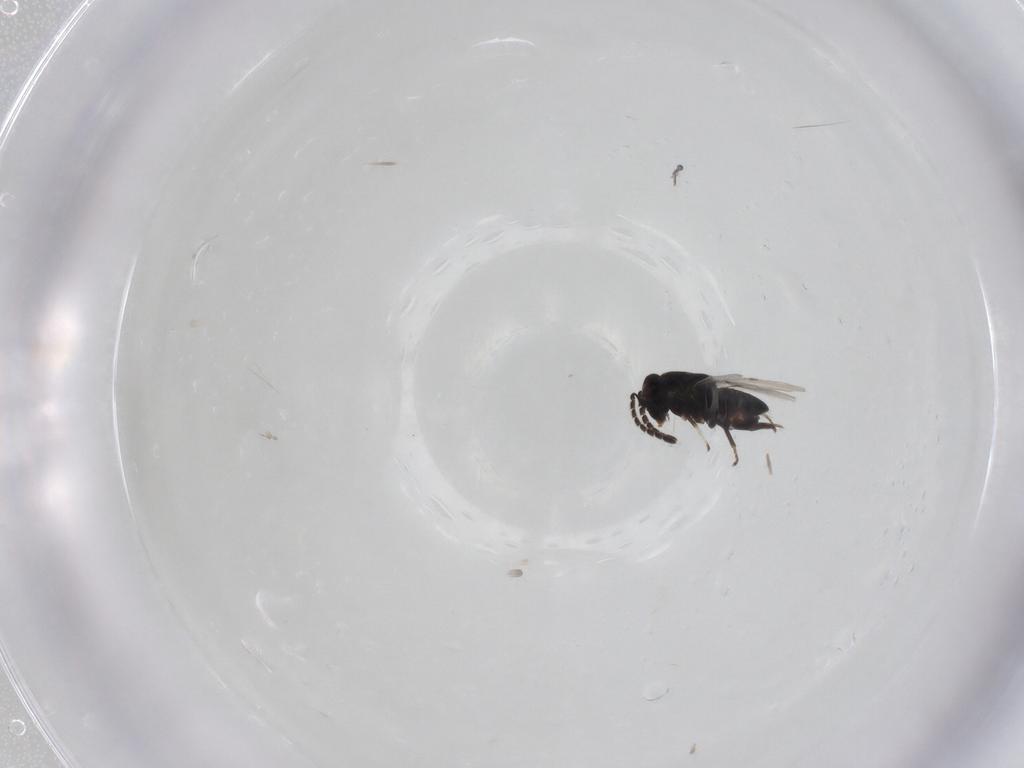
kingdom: Animalia
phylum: Arthropoda
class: Insecta
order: Hymenoptera
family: Encyrtidae
